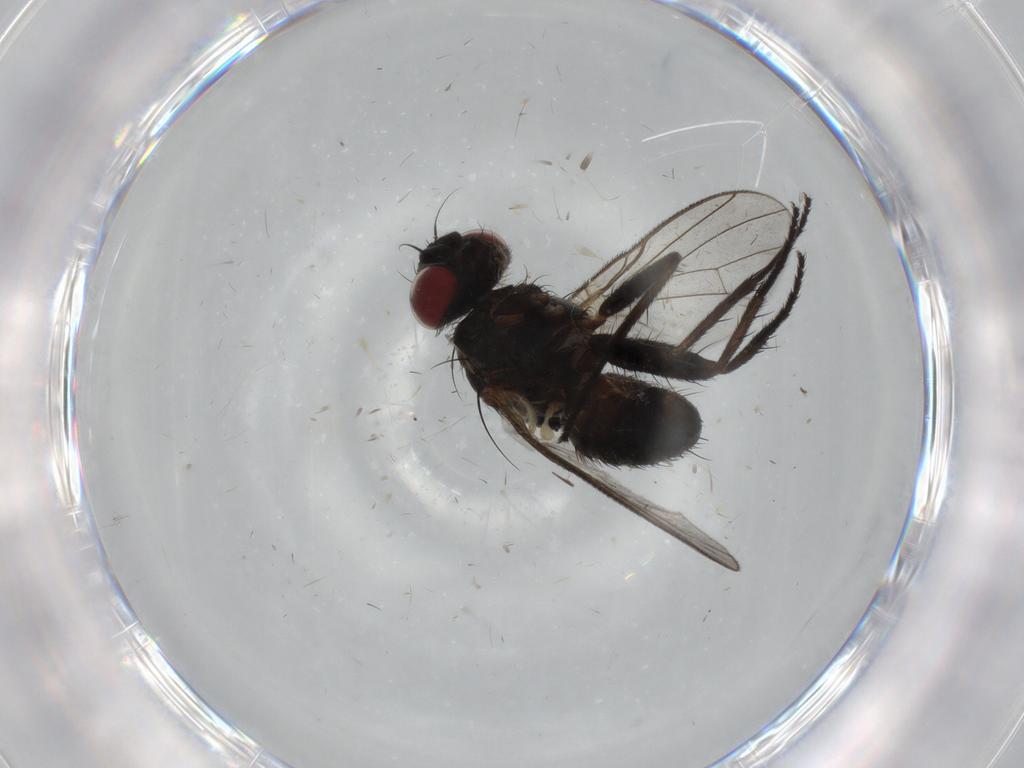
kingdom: Animalia
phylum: Arthropoda
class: Insecta
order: Diptera
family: Muscidae
